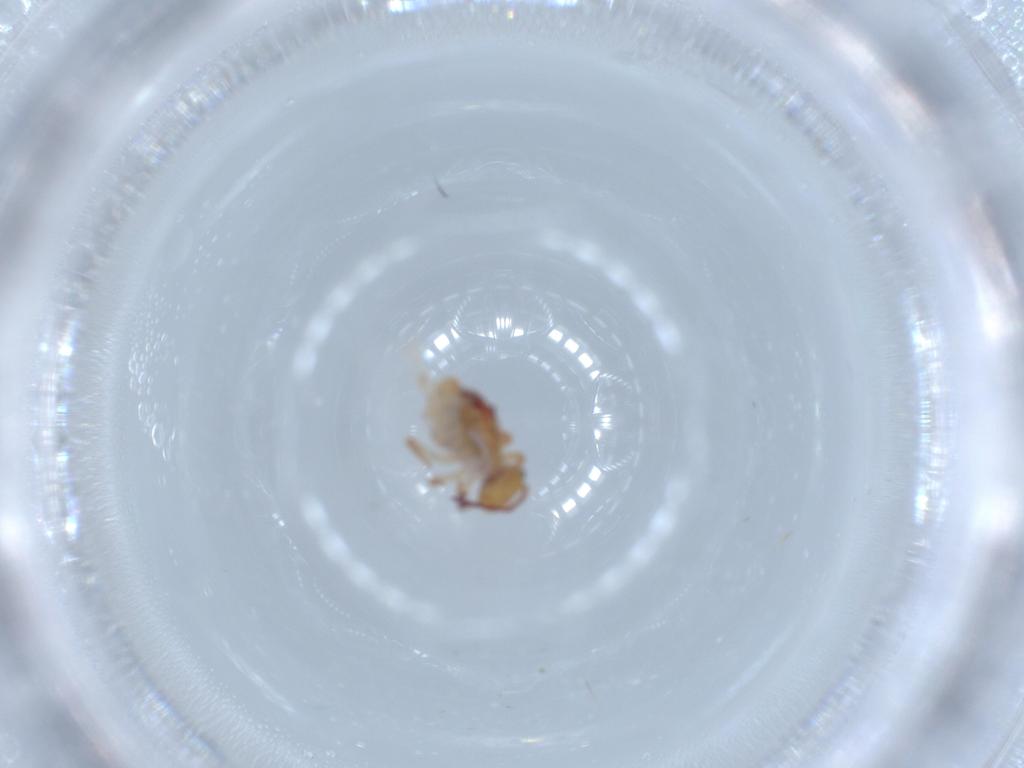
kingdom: Animalia
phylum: Arthropoda
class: Collembola
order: Symphypleona
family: Dicyrtomidae
